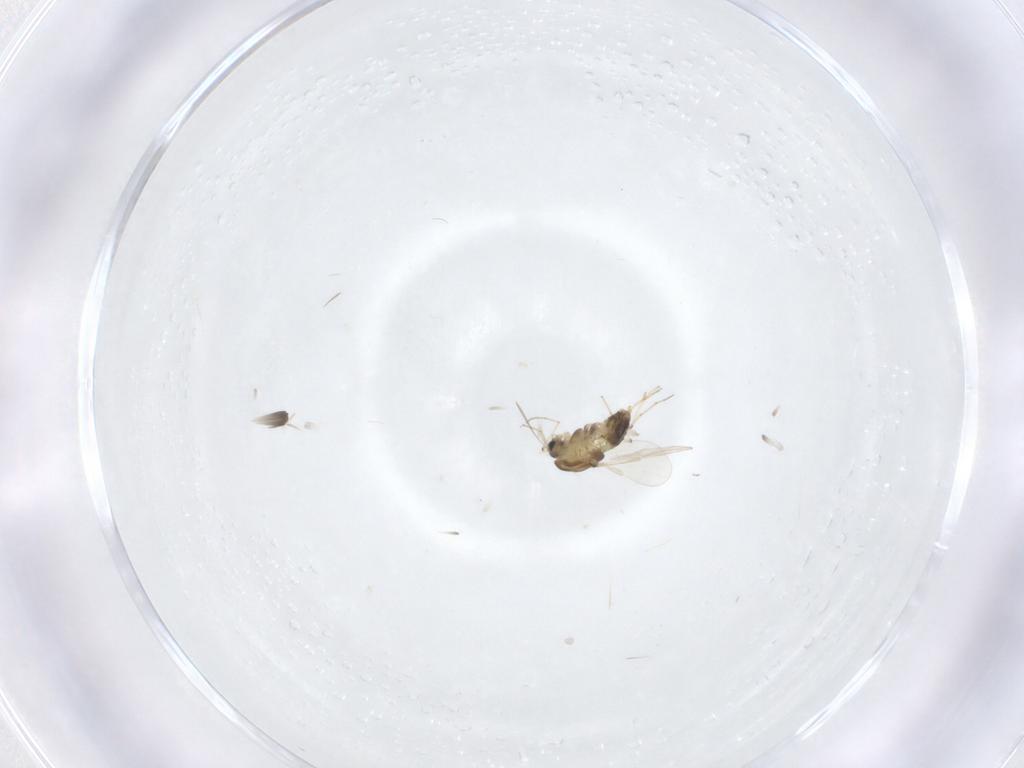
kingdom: Animalia
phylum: Arthropoda
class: Insecta
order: Diptera
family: Chironomidae
